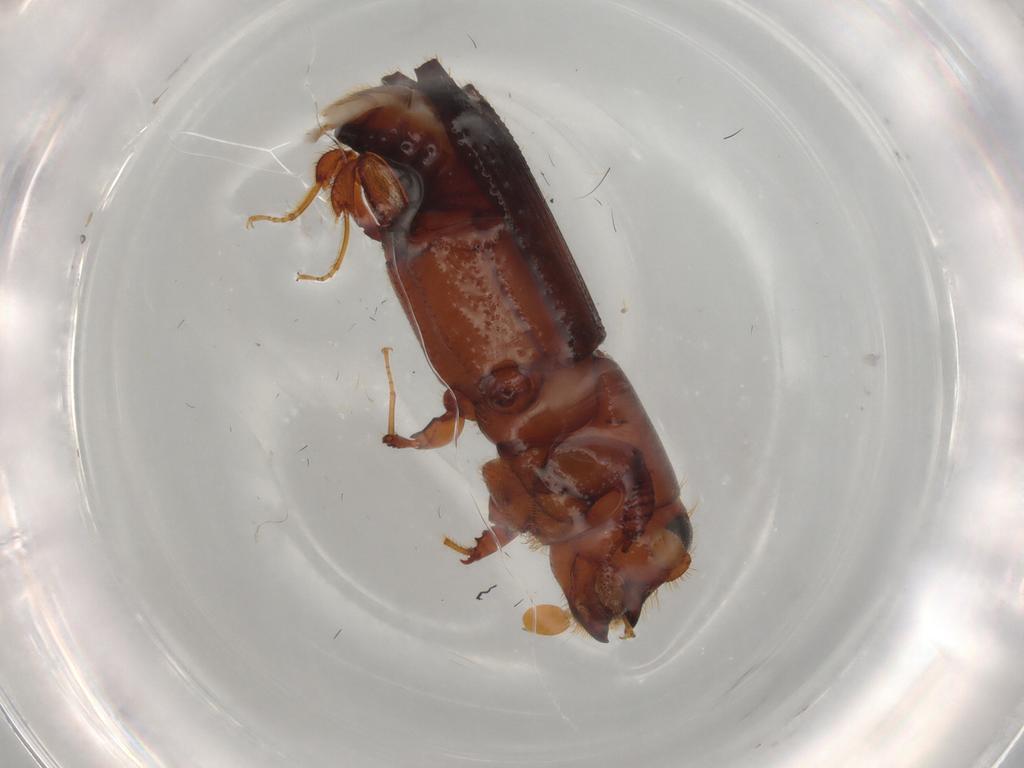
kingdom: Animalia
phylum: Arthropoda
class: Insecta
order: Coleoptera
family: Curculionidae
